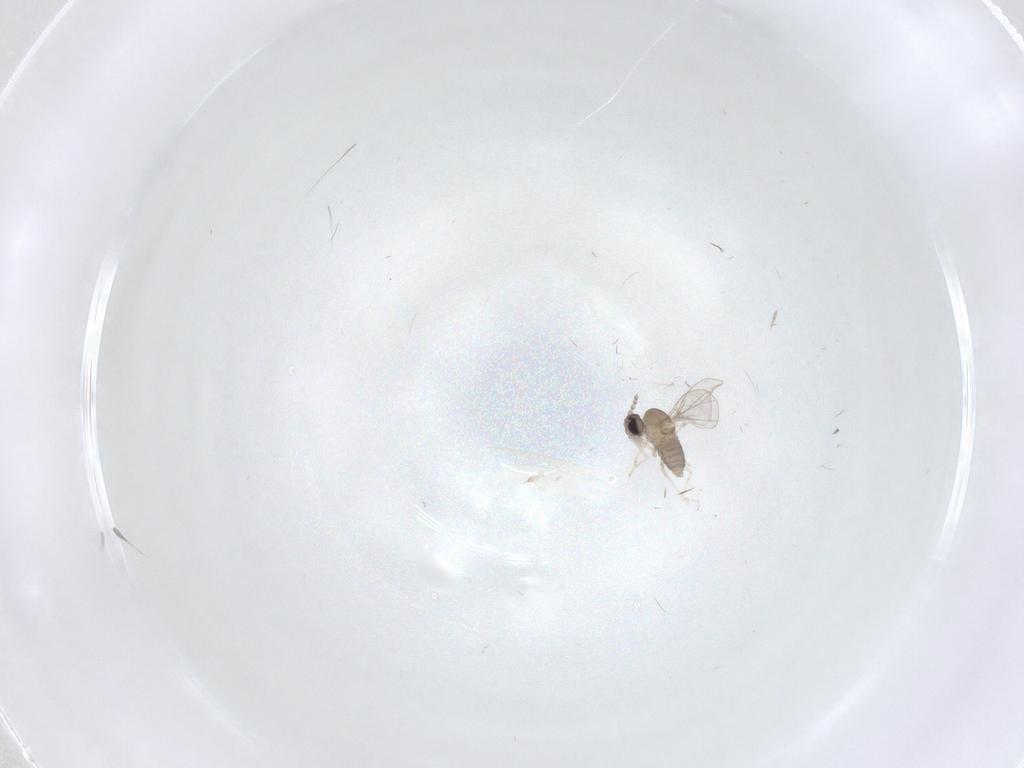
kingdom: Animalia
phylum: Arthropoda
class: Insecta
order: Diptera
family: Cecidomyiidae
